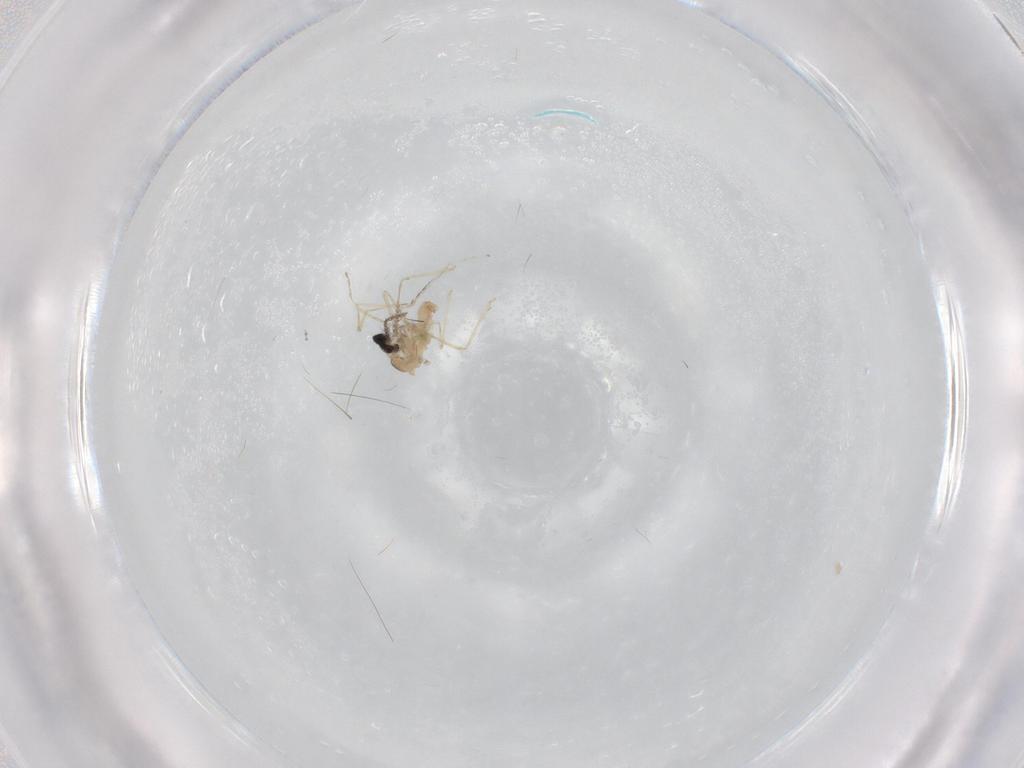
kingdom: Animalia
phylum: Arthropoda
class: Insecta
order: Diptera
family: Cecidomyiidae
